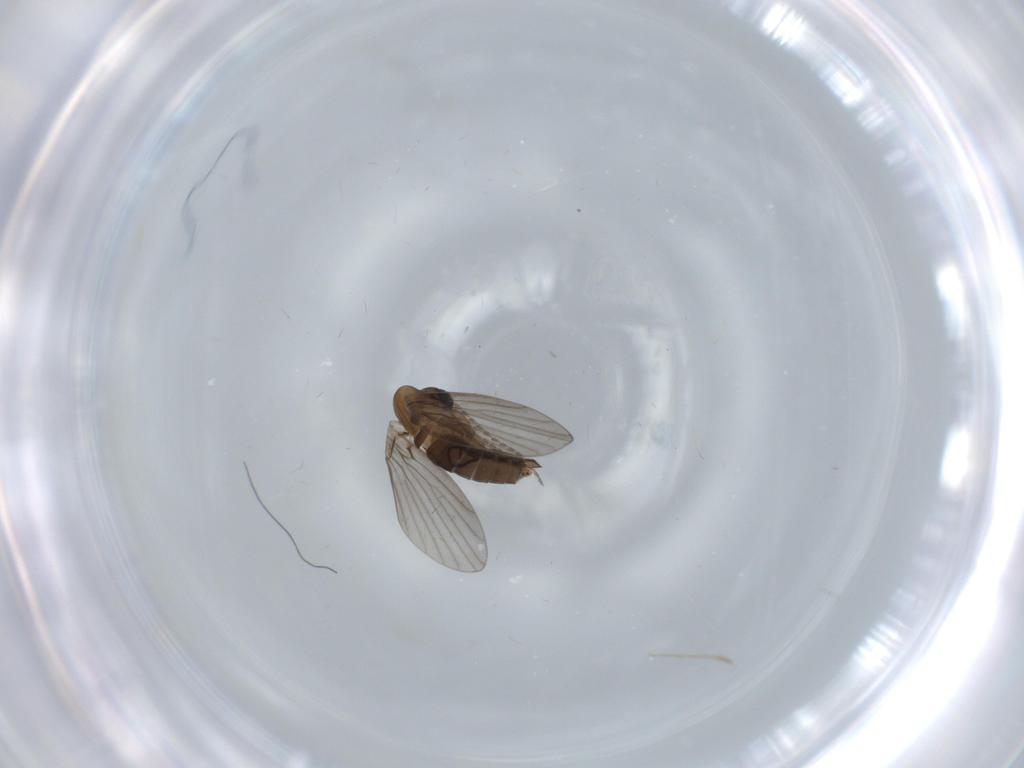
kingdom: Animalia
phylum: Arthropoda
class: Insecta
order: Diptera
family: Psychodidae
